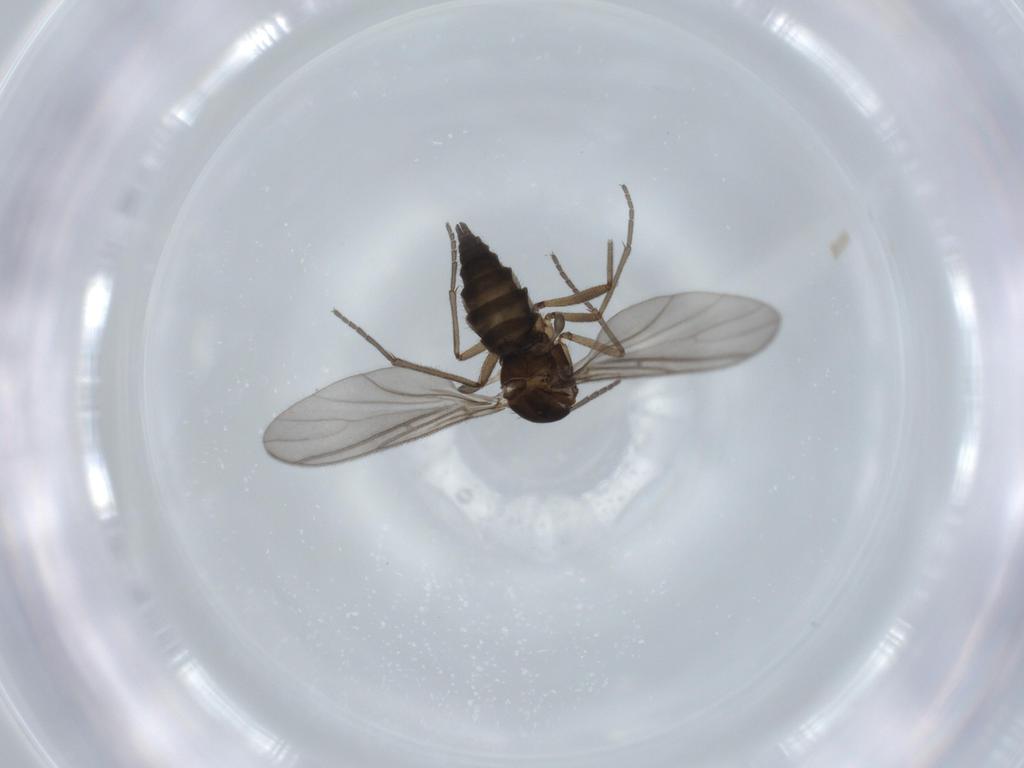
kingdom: Animalia
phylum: Arthropoda
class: Insecta
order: Diptera
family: Sciaridae
